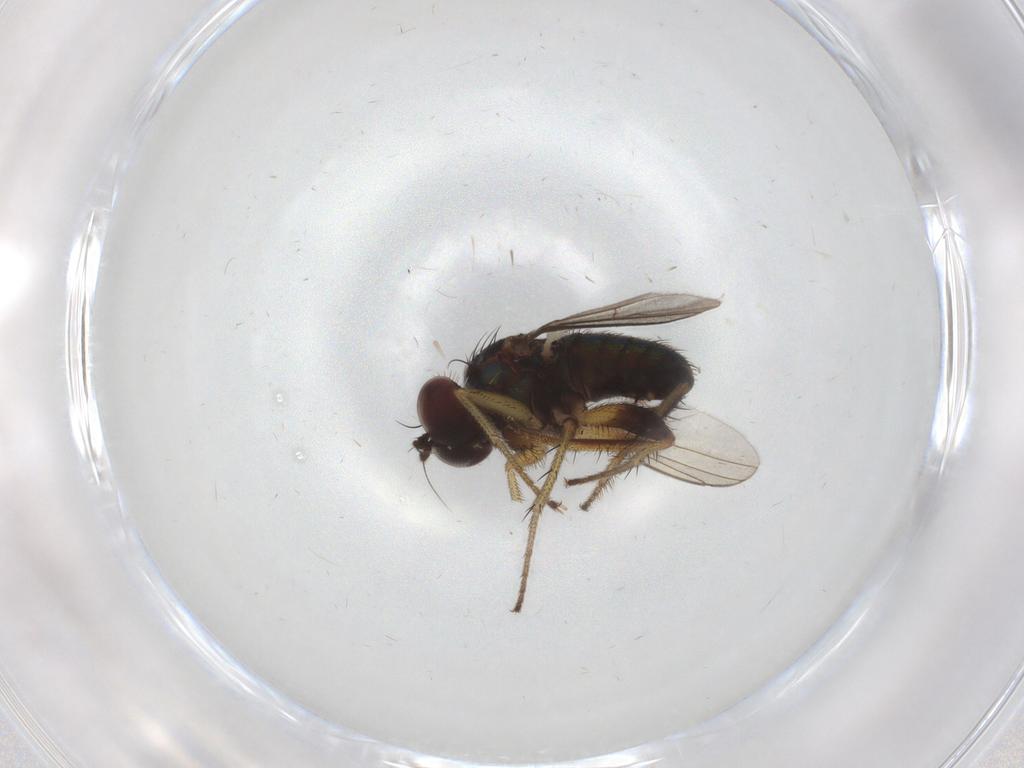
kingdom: Animalia
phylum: Arthropoda
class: Insecta
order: Diptera
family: Dolichopodidae
